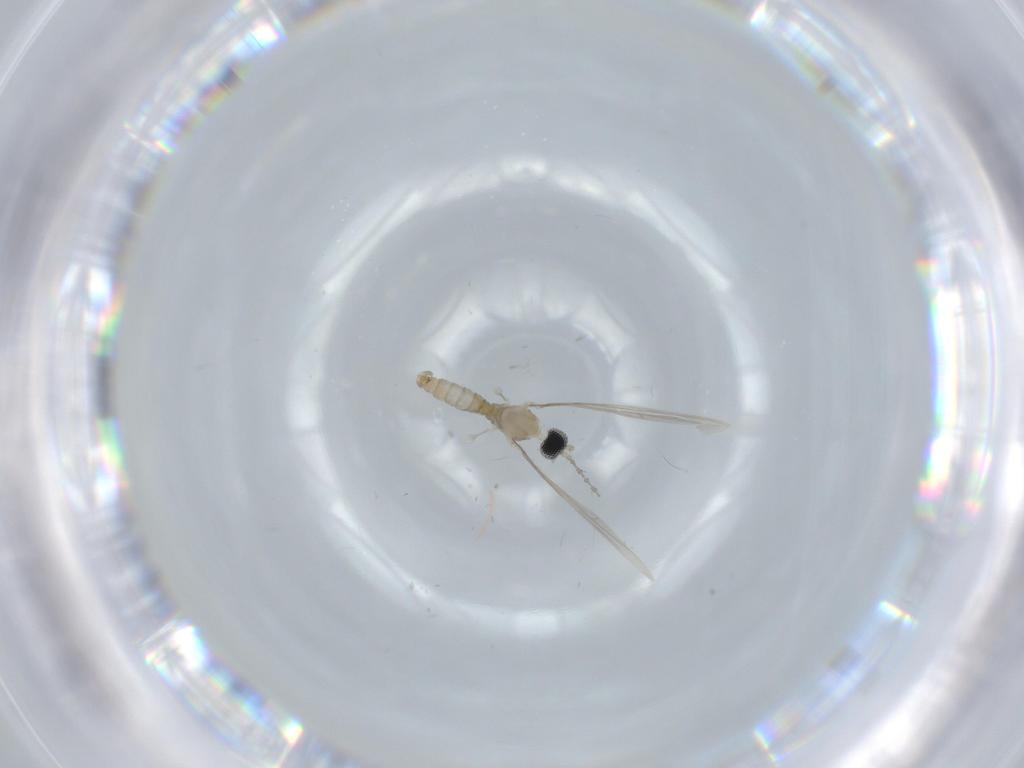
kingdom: Animalia
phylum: Arthropoda
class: Insecta
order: Diptera
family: Cecidomyiidae
